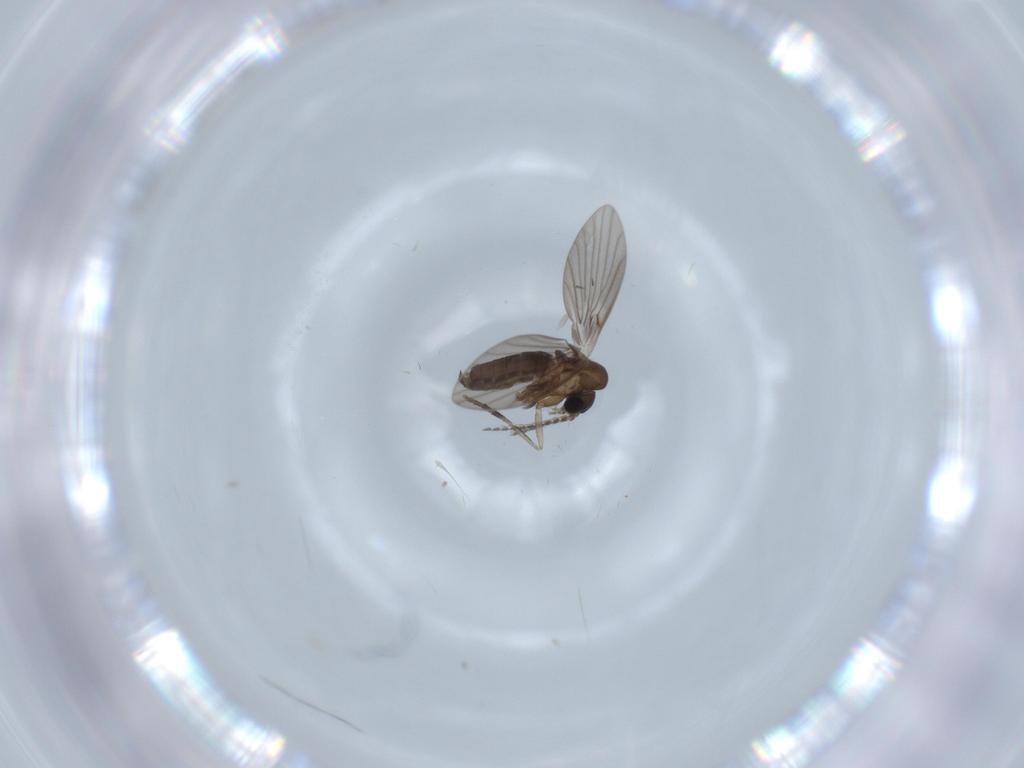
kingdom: Animalia
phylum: Arthropoda
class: Insecta
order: Diptera
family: Psychodidae
